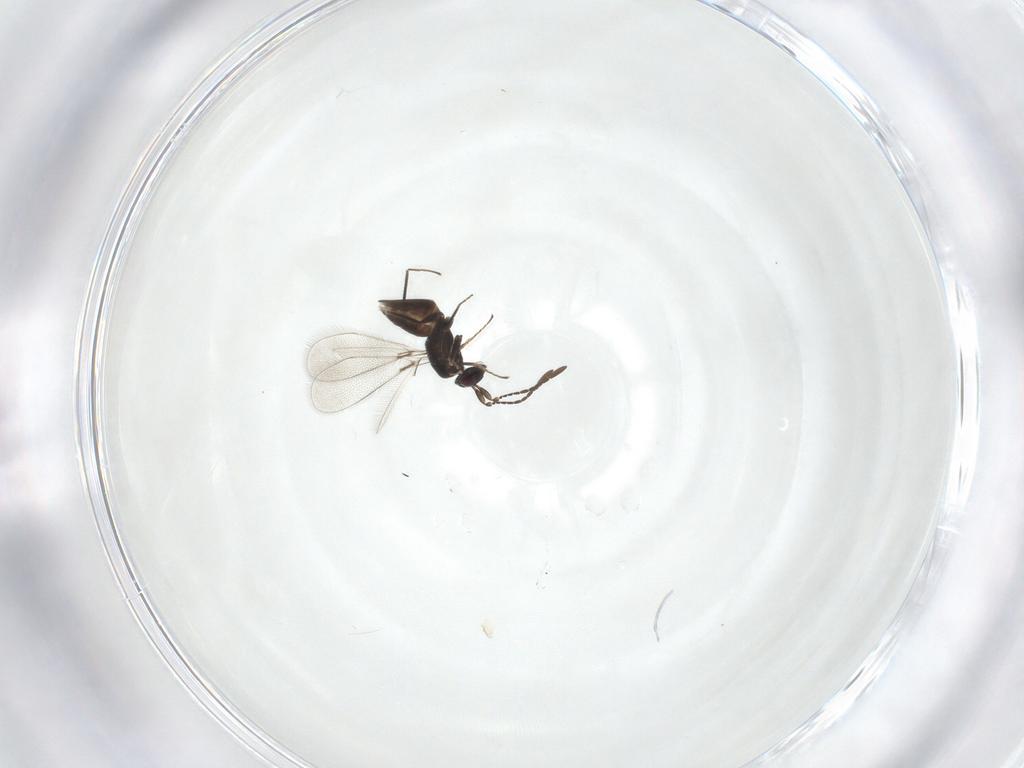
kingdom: Animalia
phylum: Arthropoda
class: Insecta
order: Hymenoptera
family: Mymaridae
